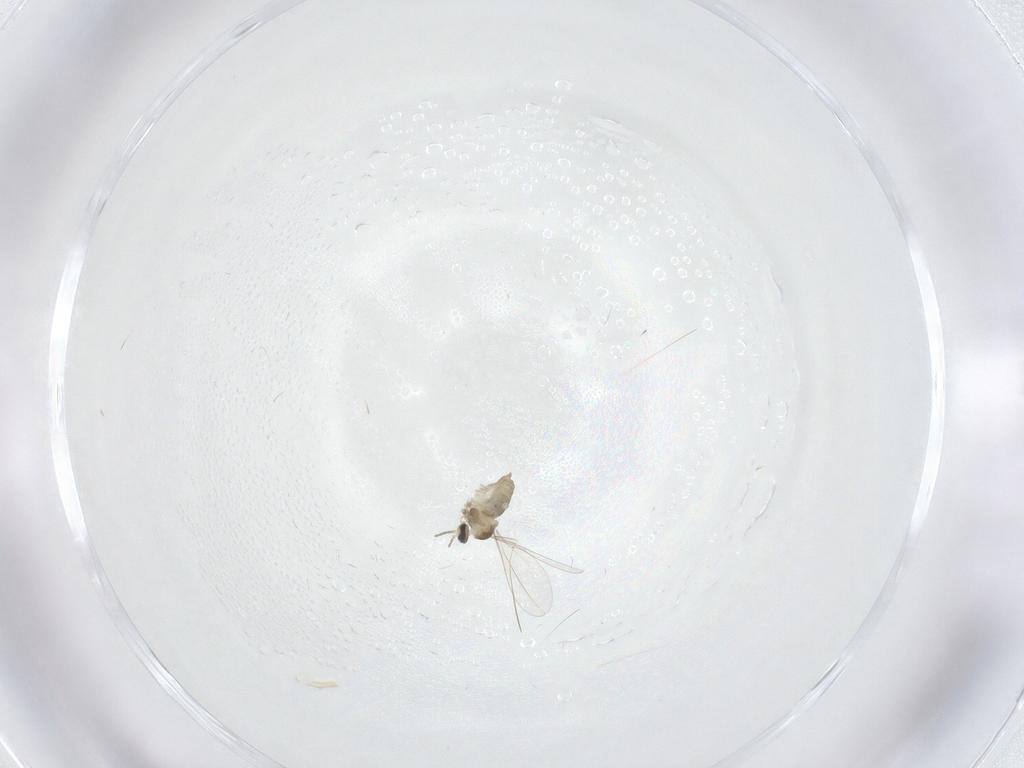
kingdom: Animalia
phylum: Arthropoda
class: Insecta
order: Diptera
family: Cecidomyiidae
